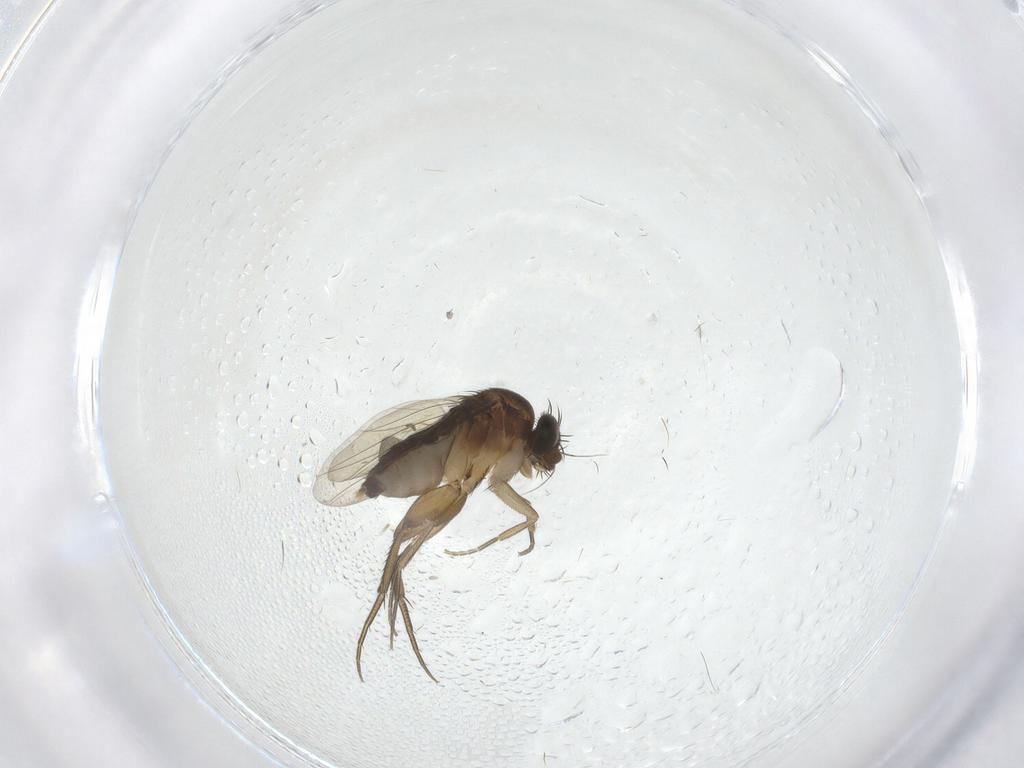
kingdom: Animalia
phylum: Arthropoda
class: Insecta
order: Diptera
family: Phoridae
